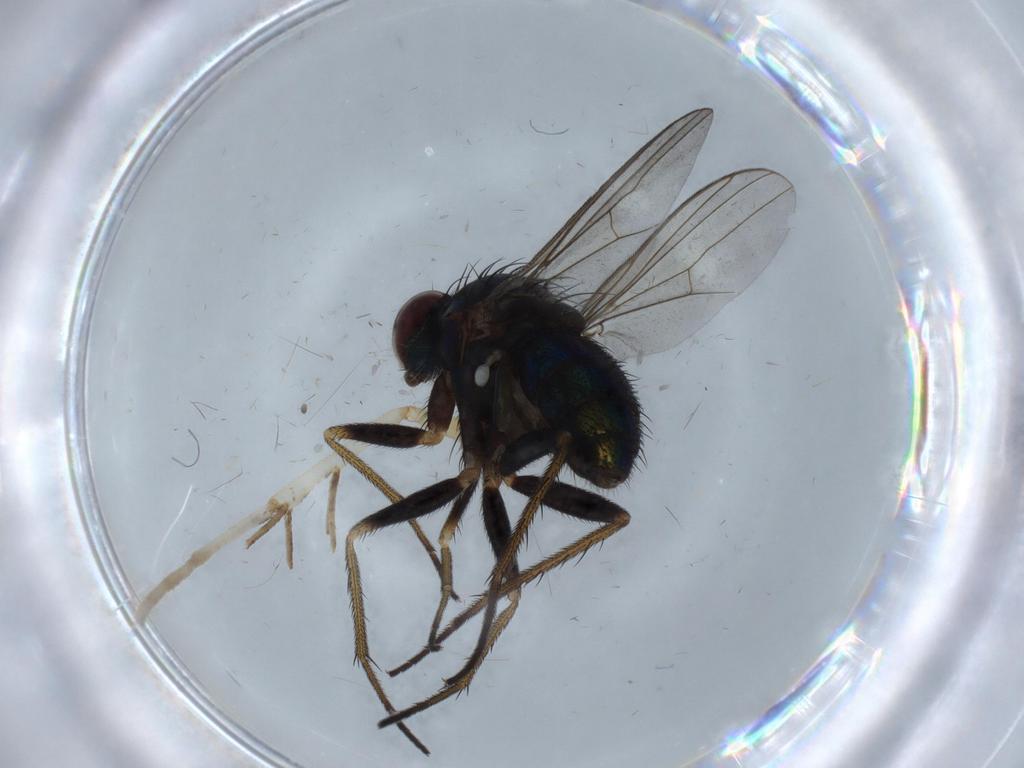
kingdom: Animalia
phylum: Arthropoda
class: Insecta
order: Diptera
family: Dolichopodidae
